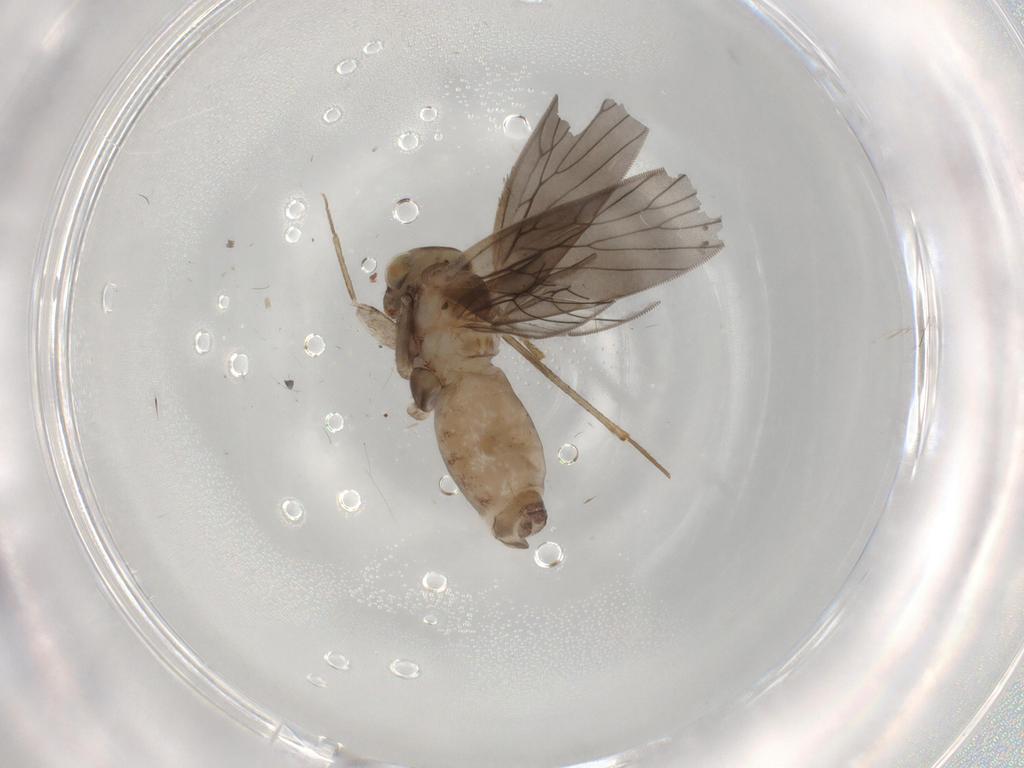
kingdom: Animalia
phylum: Arthropoda
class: Insecta
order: Psocodea
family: Lepidopsocidae
